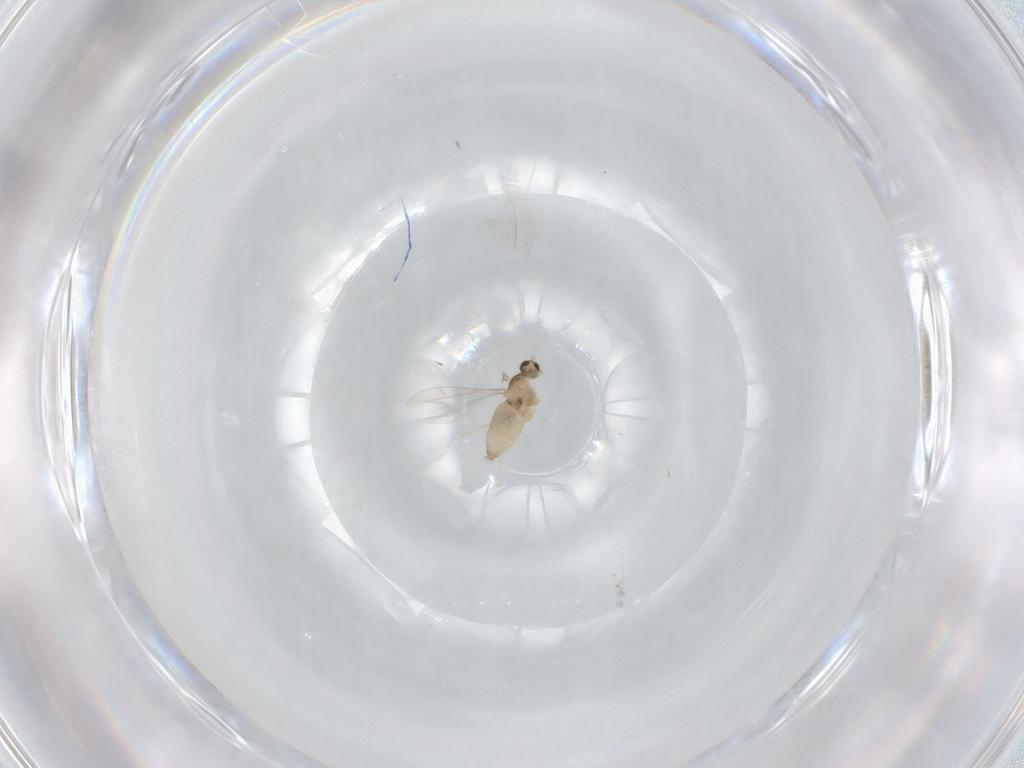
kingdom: Animalia
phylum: Arthropoda
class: Insecta
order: Diptera
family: Cecidomyiidae
